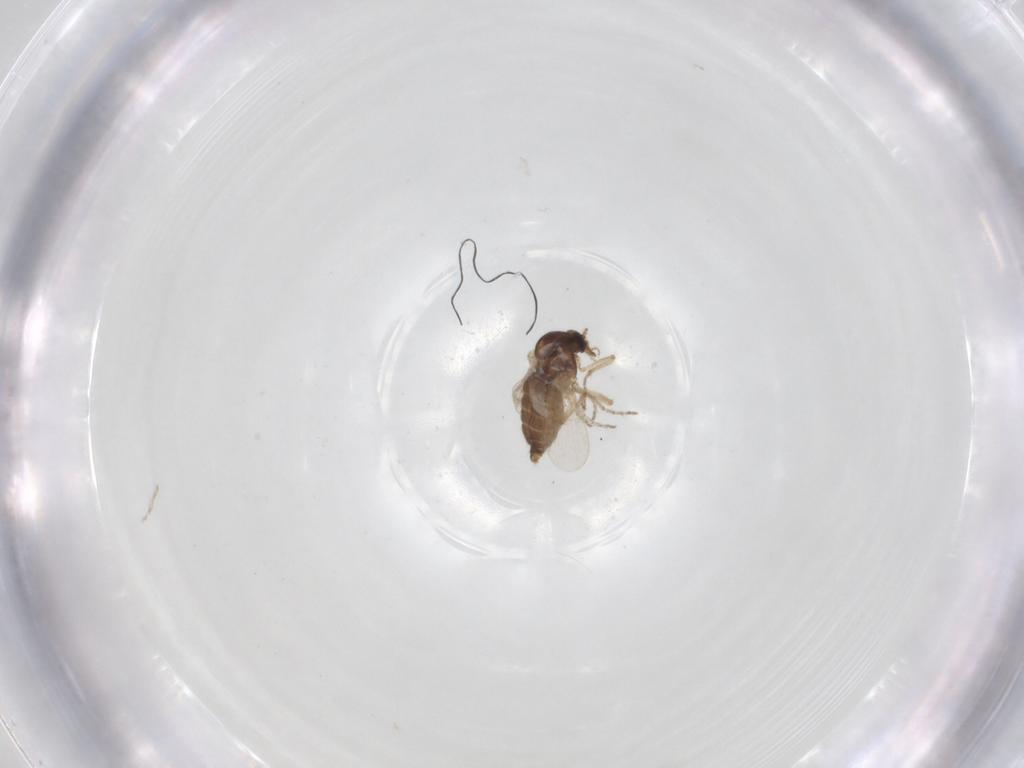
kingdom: Animalia
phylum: Arthropoda
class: Insecta
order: Diptera
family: Ceratopogonidae
